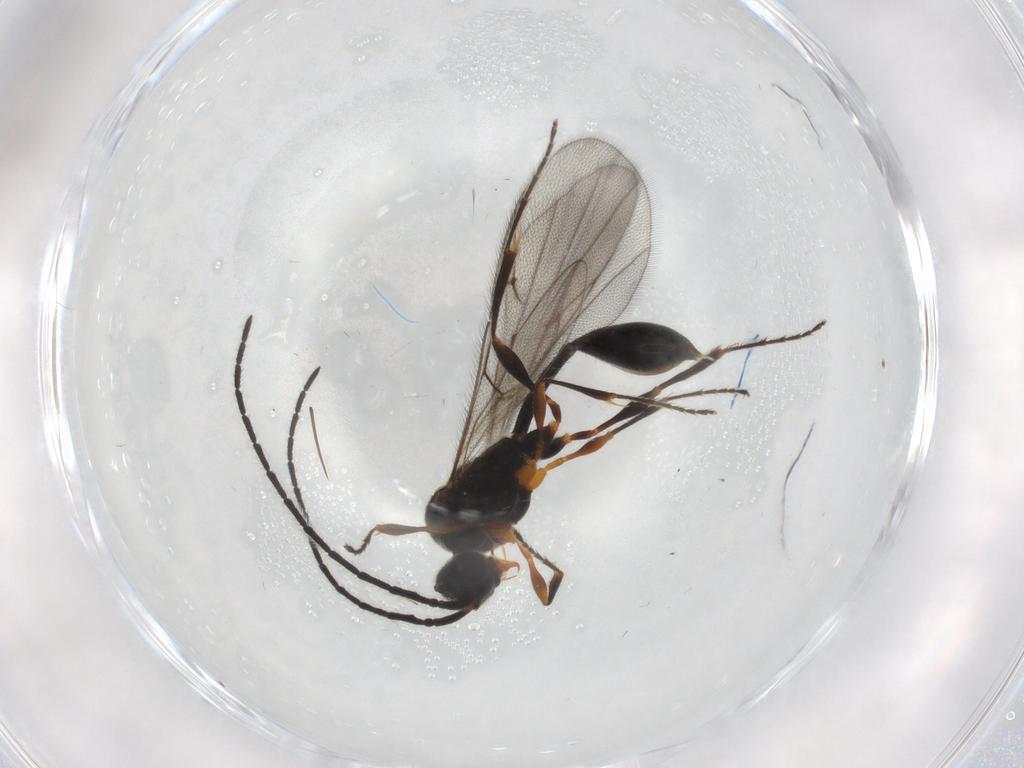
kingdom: Animalia
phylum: Arthropoda
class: Insecta
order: Hymenoptera
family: Diapriidae
